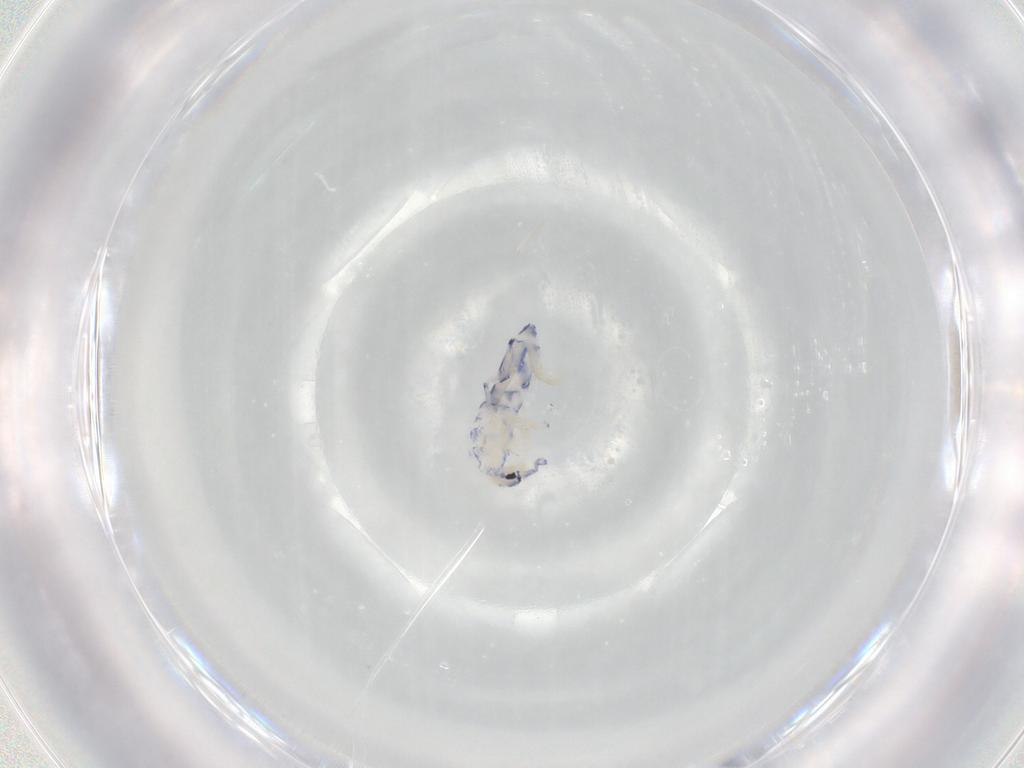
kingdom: Animalia
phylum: Arthropoda
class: Collembola
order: Entomobryomorpha
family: Entomobryidae
